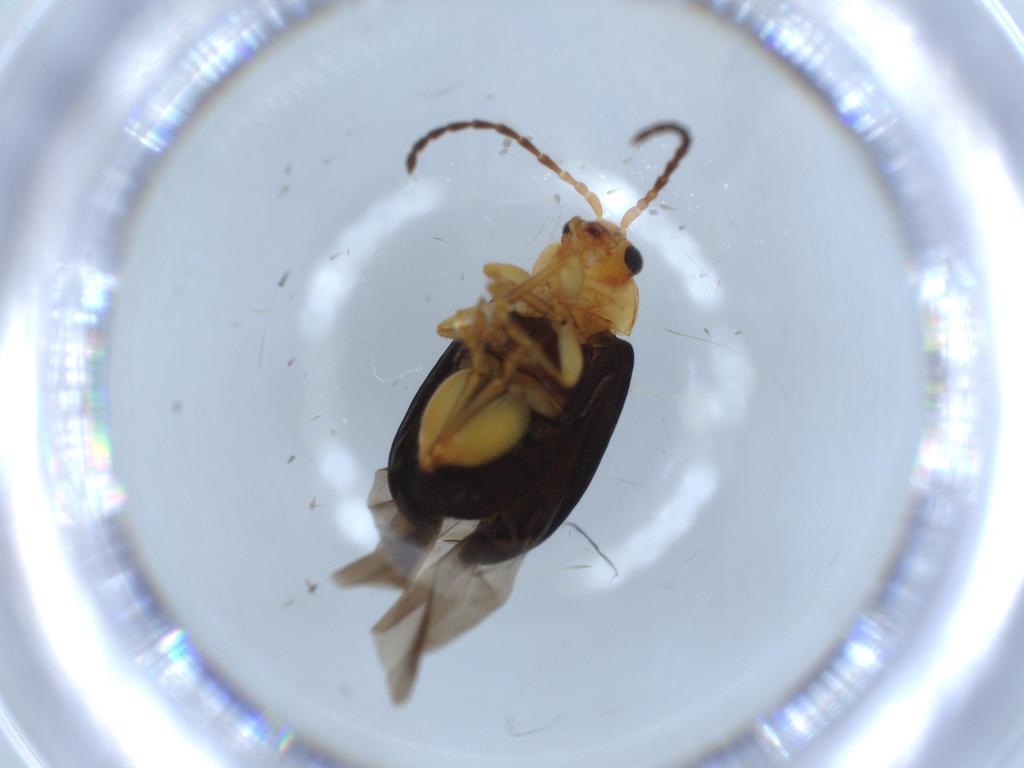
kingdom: Animalia
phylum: Arthropoda
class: Insecta
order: Coleoptera
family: Chrysomelidae
